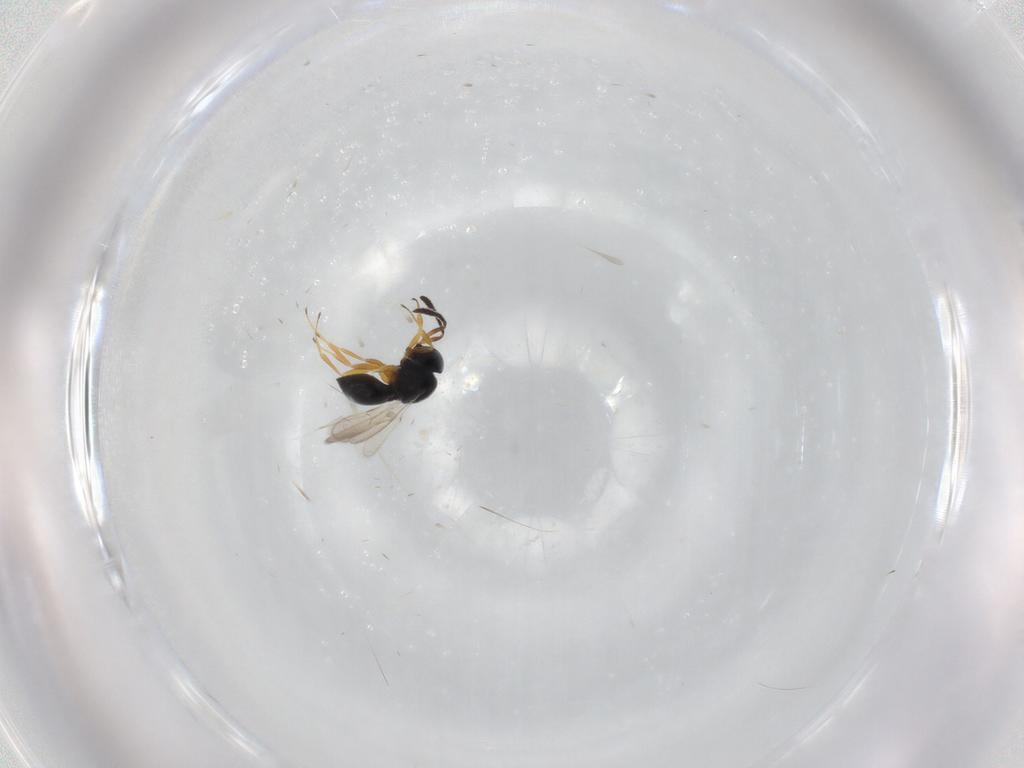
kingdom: Animalia
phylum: Arthropoda
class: Insecta
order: Hymenoptera
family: Scelionidae
